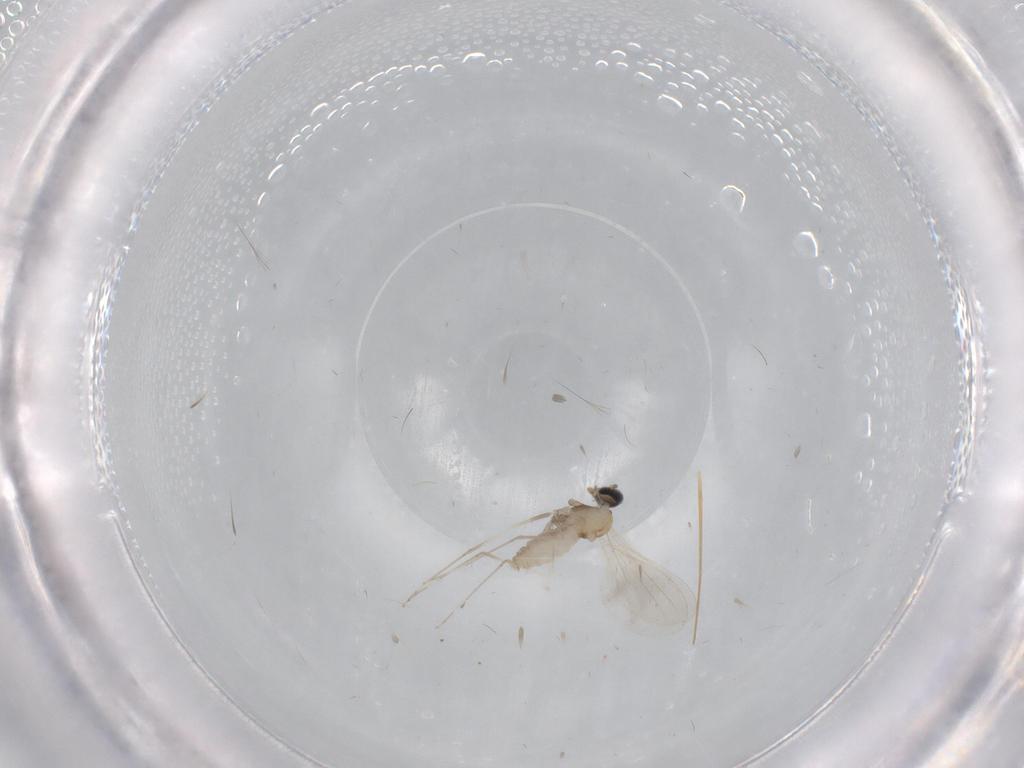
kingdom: Animalia
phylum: Arthropoda
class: Insecta
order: Diptera
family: Cecidomyiidae
